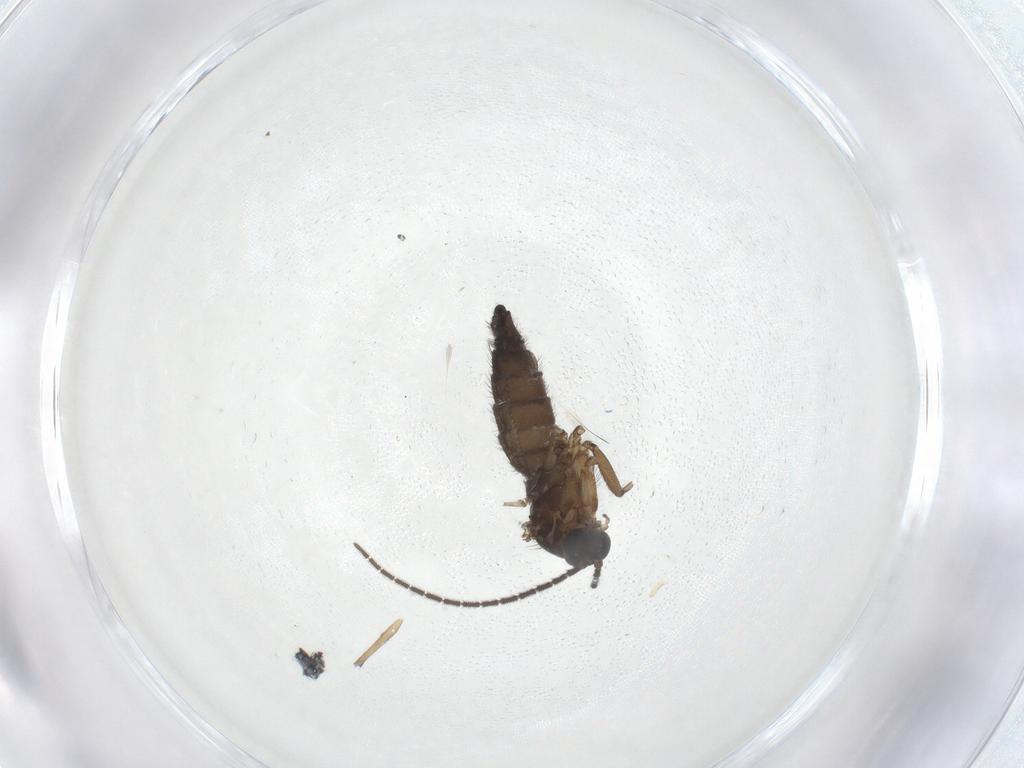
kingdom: Animalia
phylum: Arthropoda
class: Insecta
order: Diptera
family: Sciaridae
